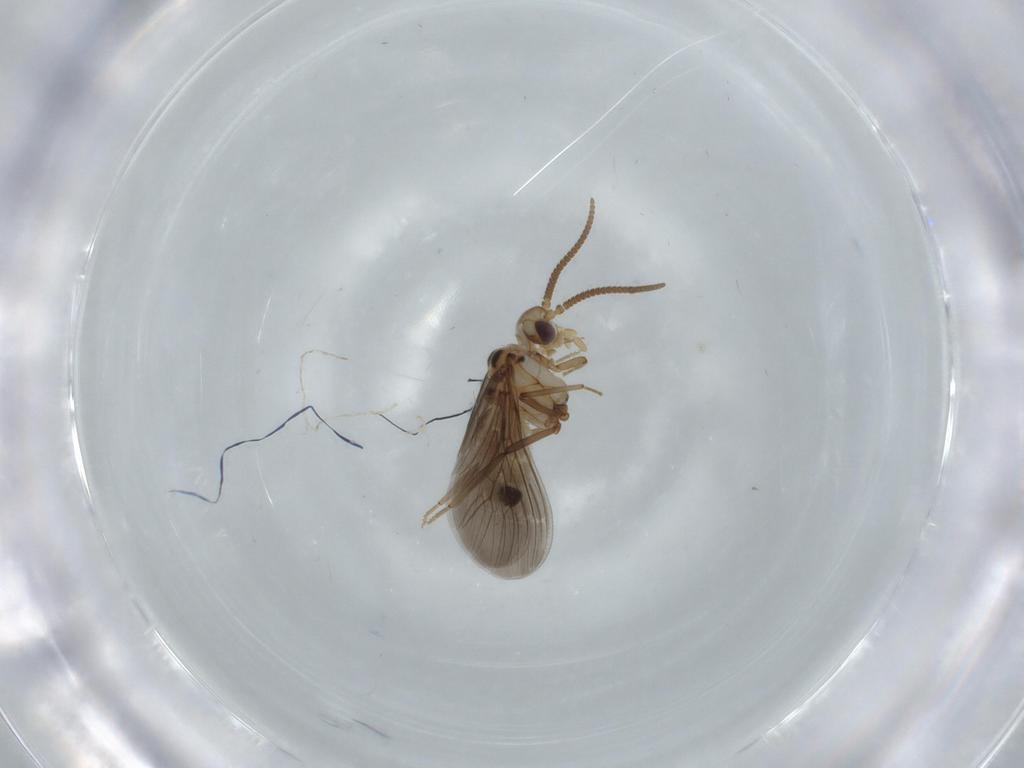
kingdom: Animalia
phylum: Arthropoda
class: Insecta
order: Neuroptera
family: Coniopterygidae
